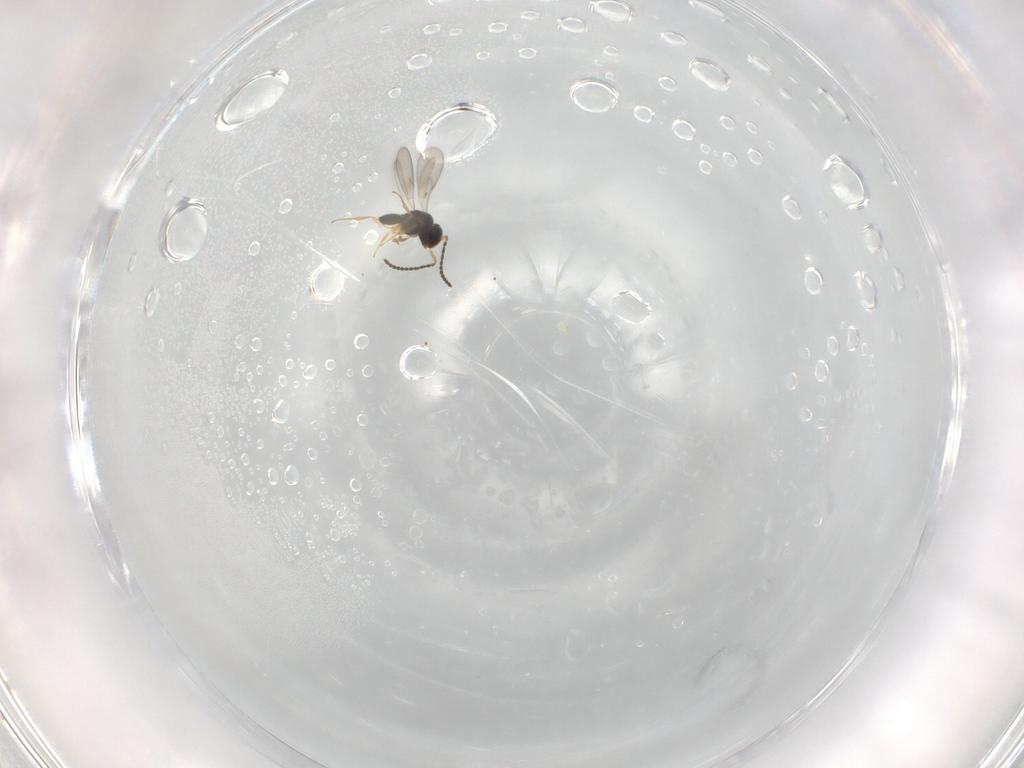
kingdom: Animalia
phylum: Arthropoda
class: Insecta
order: Hymenoptera
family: Scelionidae
